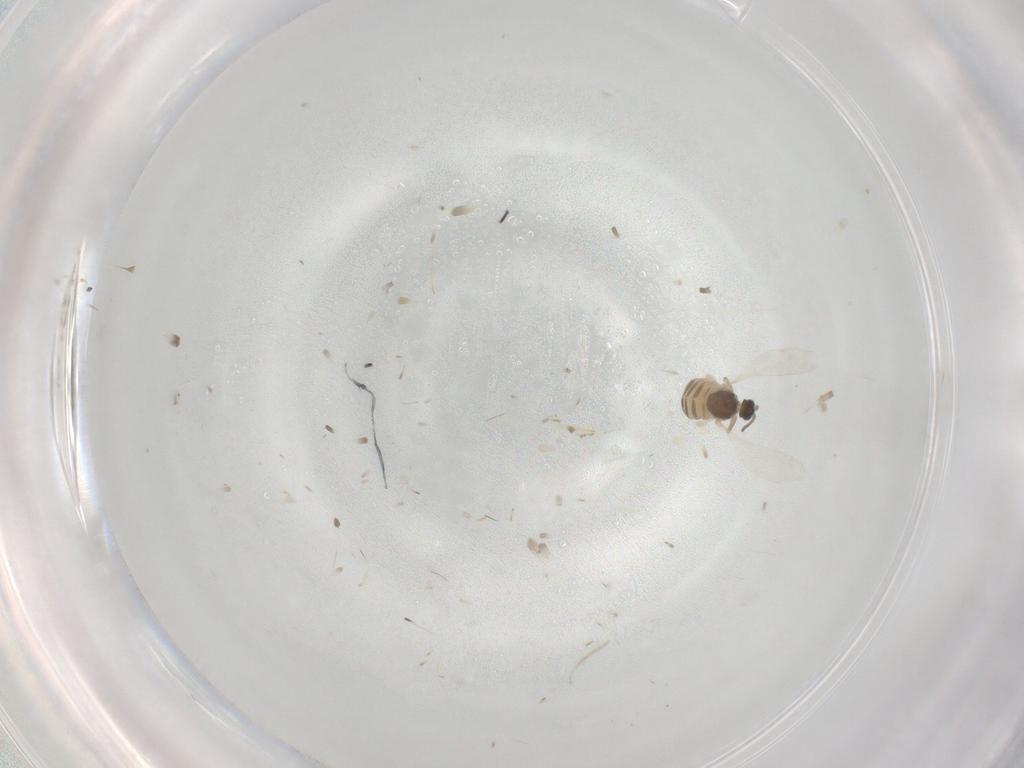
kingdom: Animalia
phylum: Arthropoda
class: Insecta
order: Diptera
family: Cecidomyiidae
